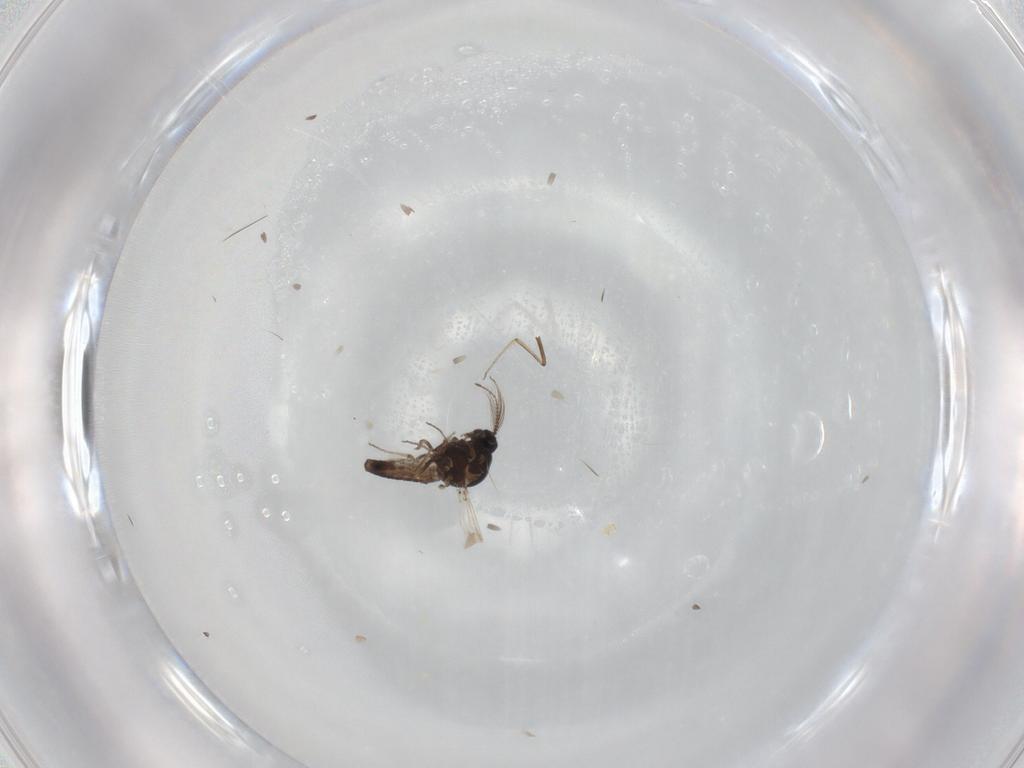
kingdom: Animalia
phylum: Arthropoda
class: Insecta
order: Diptera
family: Ceratopogonidae
